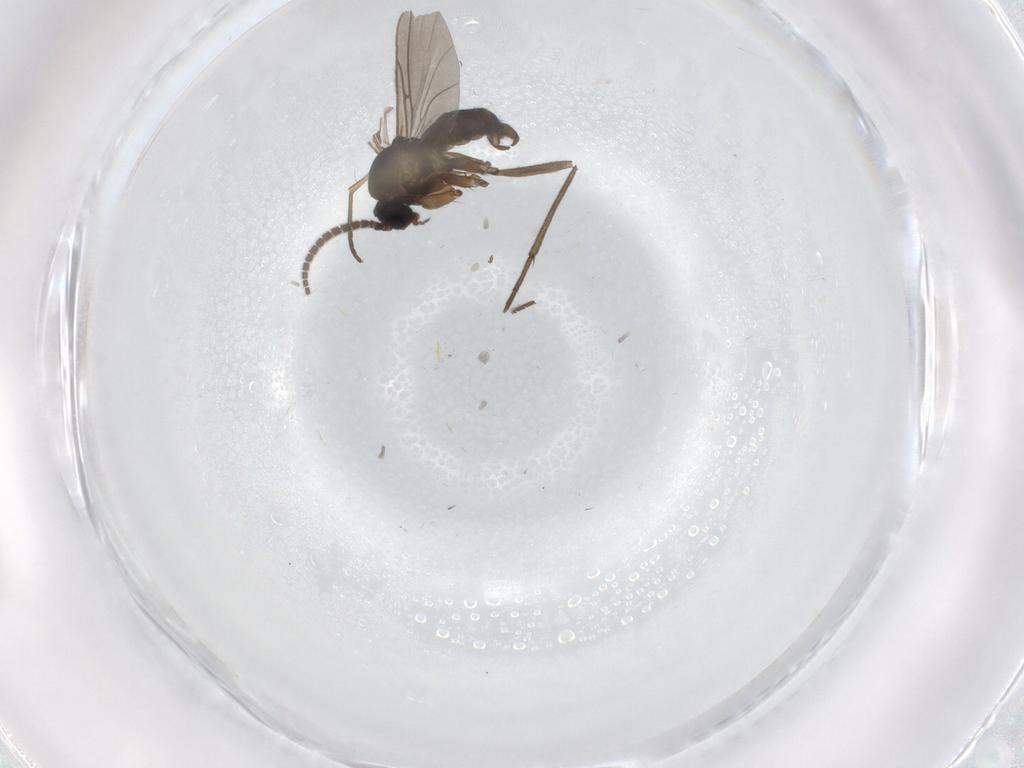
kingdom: Animalia
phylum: Arthropoda
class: Insecta
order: Diptera
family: Sciaridae
